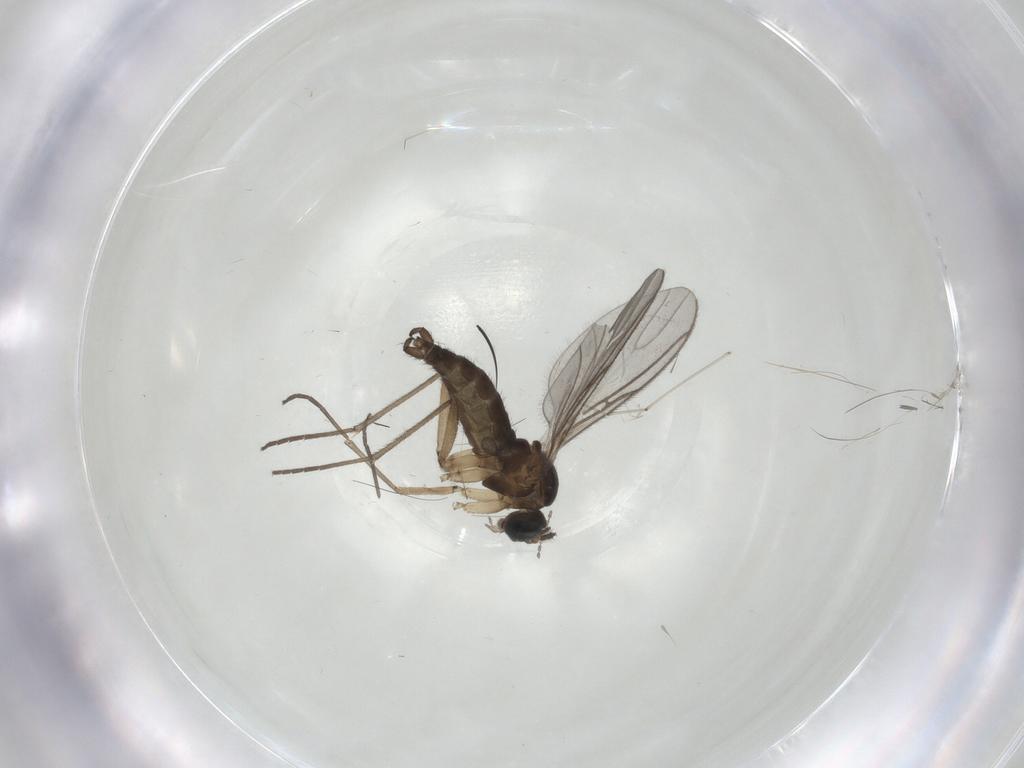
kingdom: Animalia
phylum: Arthropoda
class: Insecta
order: Diptera
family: Sciaridae
